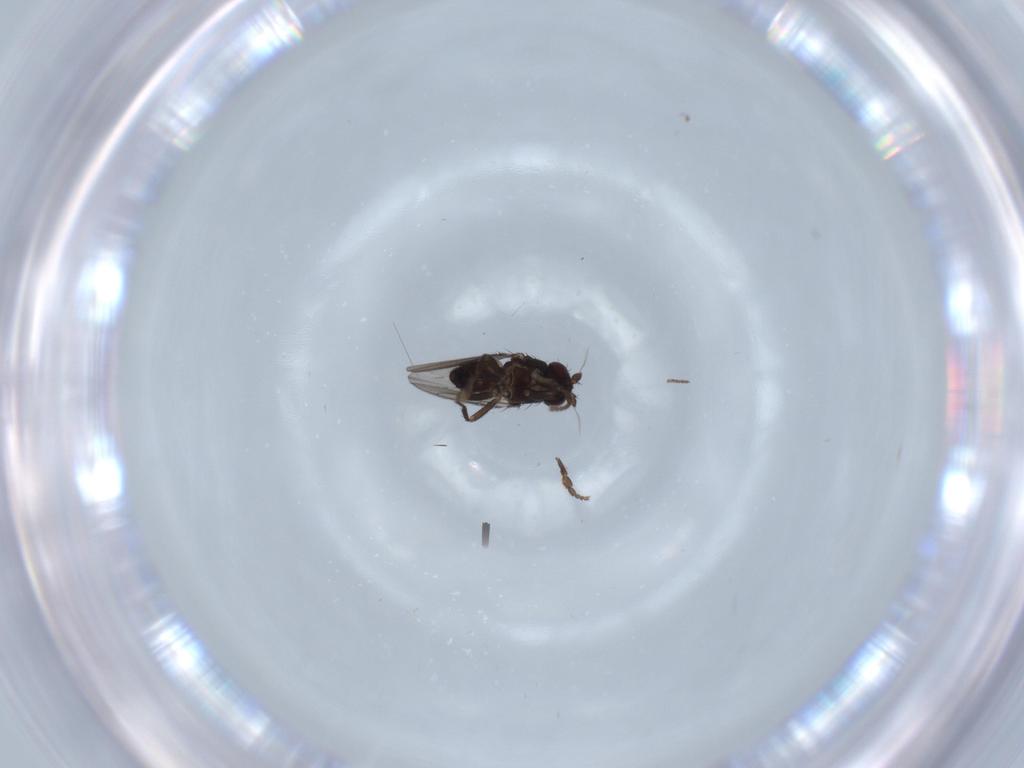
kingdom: Animalia
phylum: Arthropoda
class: Insecta
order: Diptera
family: Sphaeroceridae
